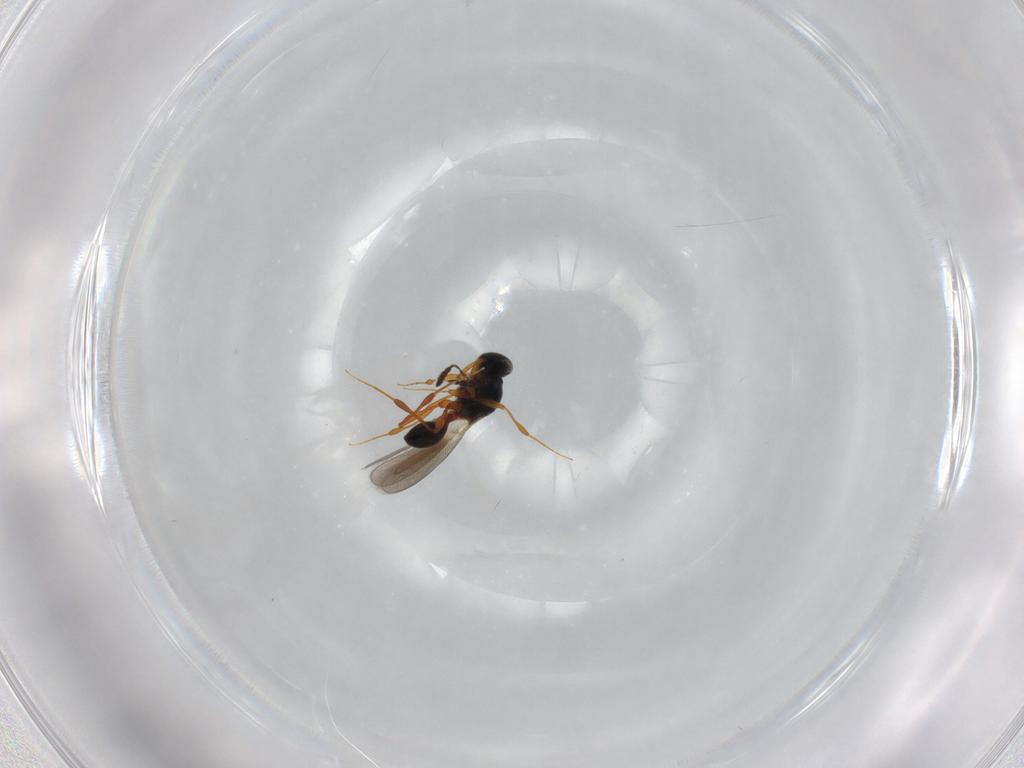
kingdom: Animalia
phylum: Arthropoda
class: Insecta
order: Hymenoptera
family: Platygastridae
